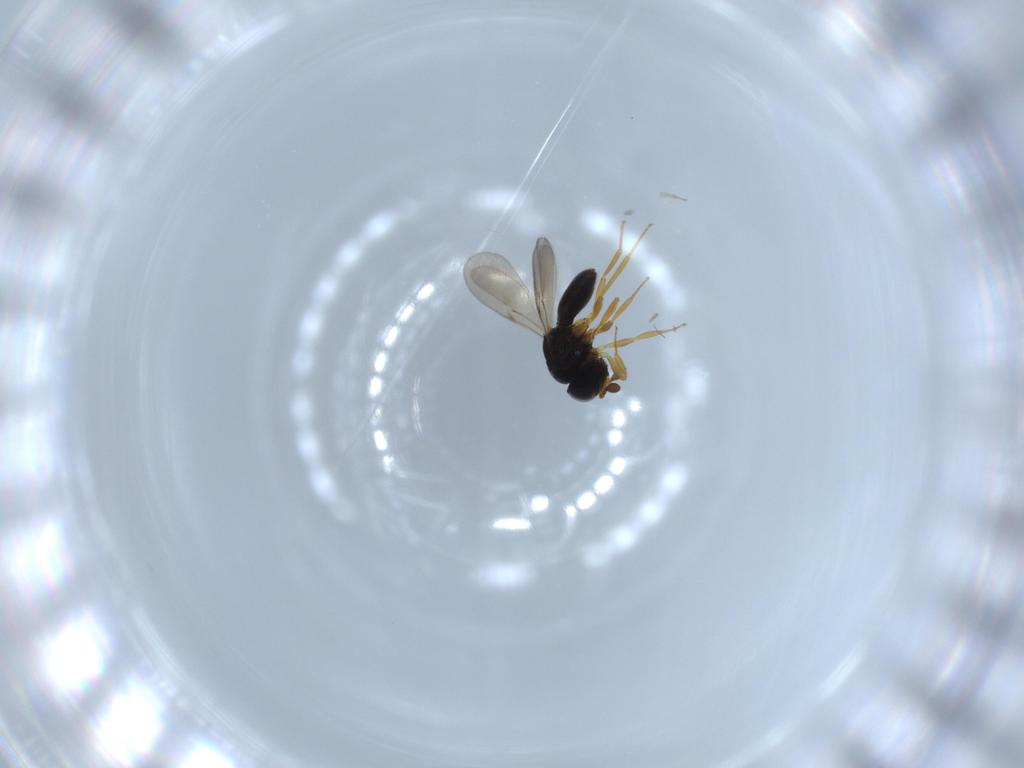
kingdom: Animalia
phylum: Arthropoda
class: Insecta
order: Hymenoptera
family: Scelionidae
